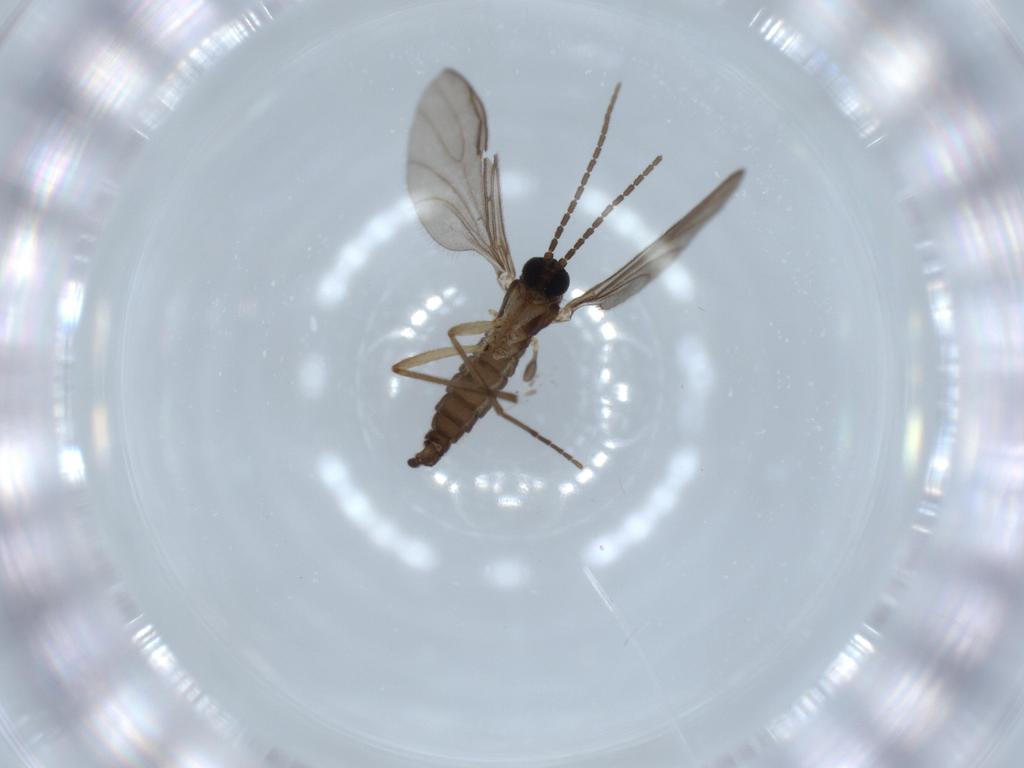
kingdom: Animalia
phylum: Arthropoda
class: Insecta
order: Diptera
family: Sciaridae
